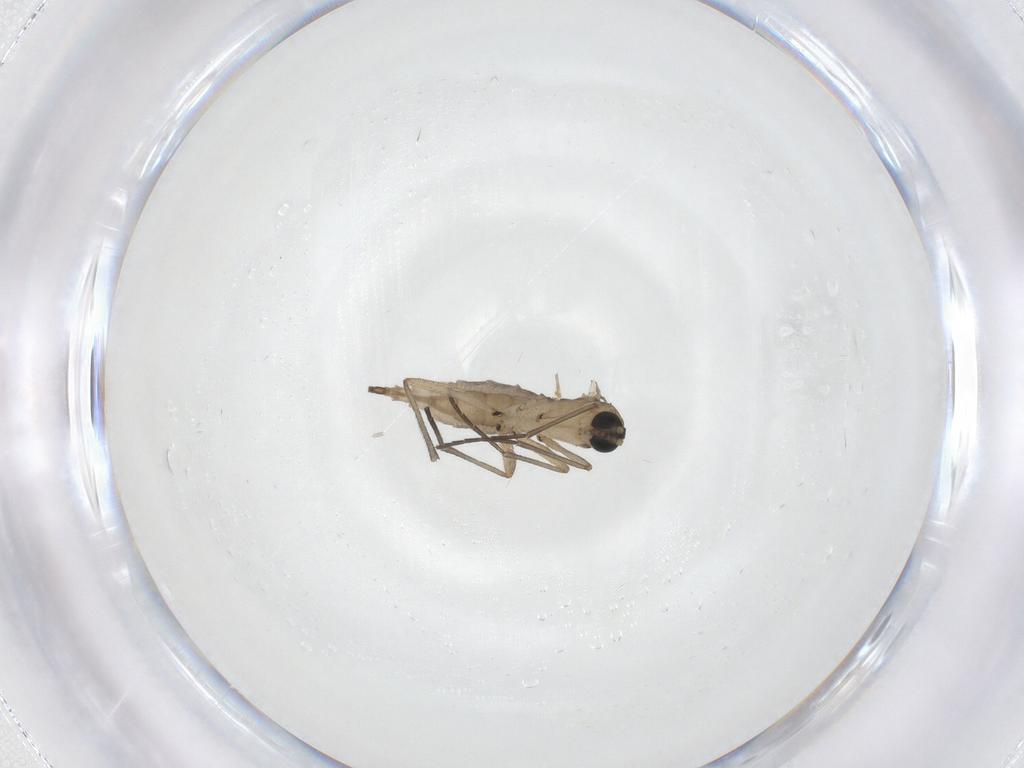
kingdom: Animalia
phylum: Arthropoda
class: Insecta
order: Diptera
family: Sciaridae
